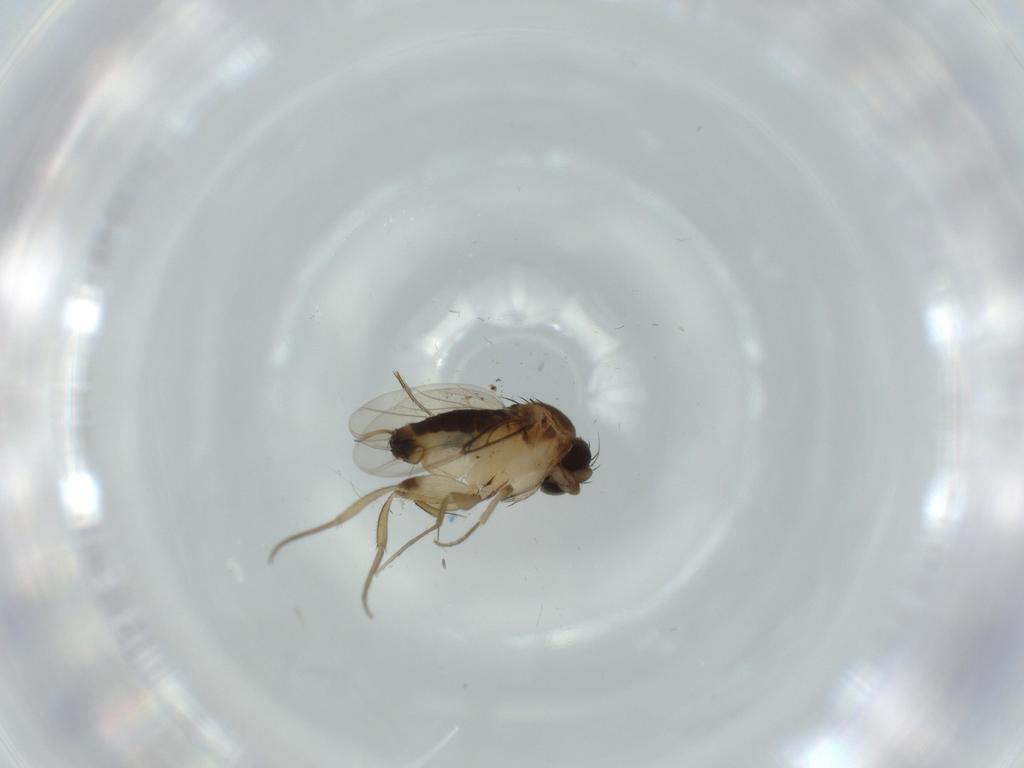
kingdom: Animalia
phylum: Arthropoda
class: Insecta
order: Diptera
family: Phoridae
